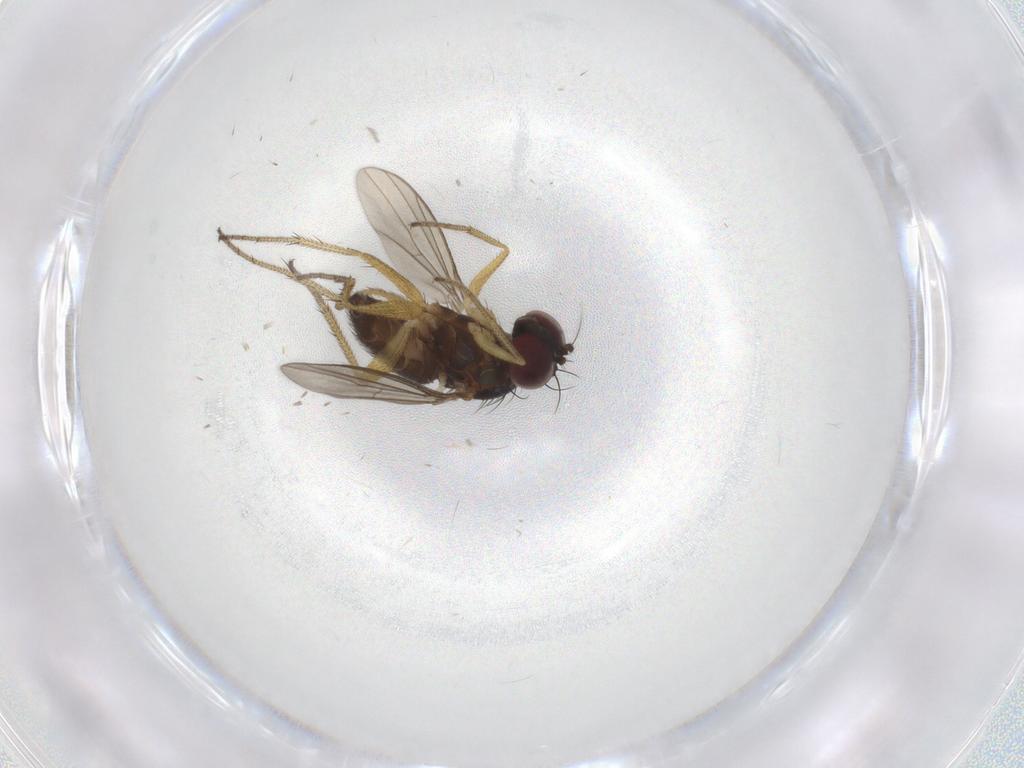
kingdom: Animalia
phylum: Arthropoda
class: Insecta
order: Diptera
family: Dolichopodidae
